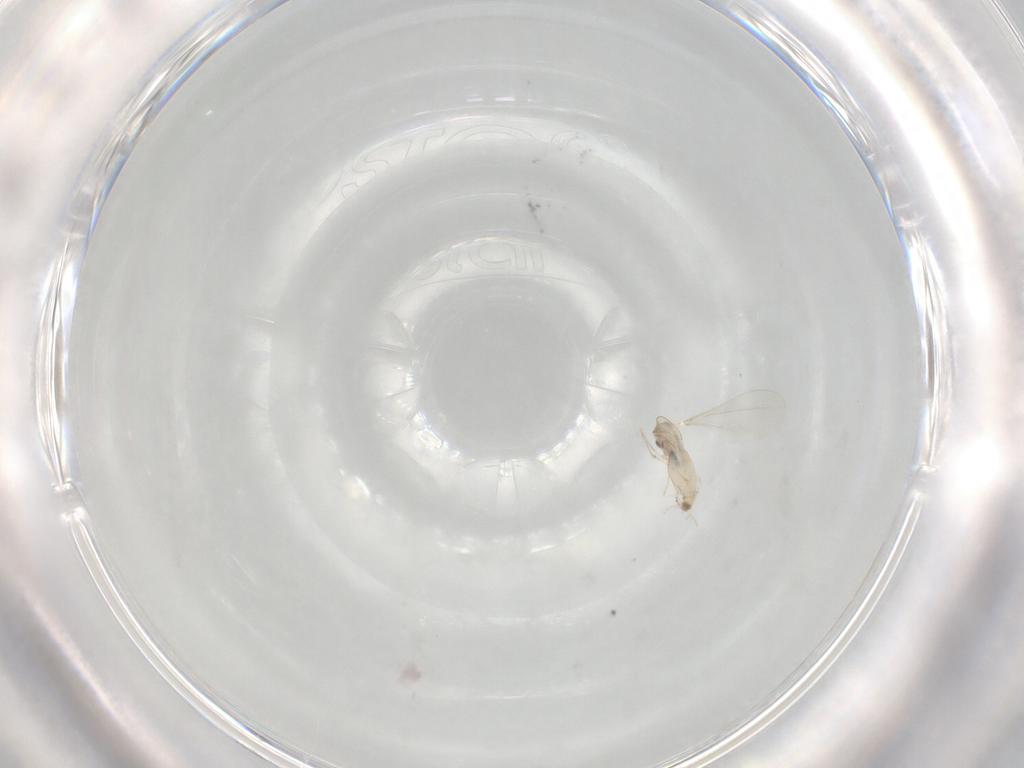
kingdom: Animalia
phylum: Arthropoda
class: Insecta
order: Diptera
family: Cecidomyiidae
